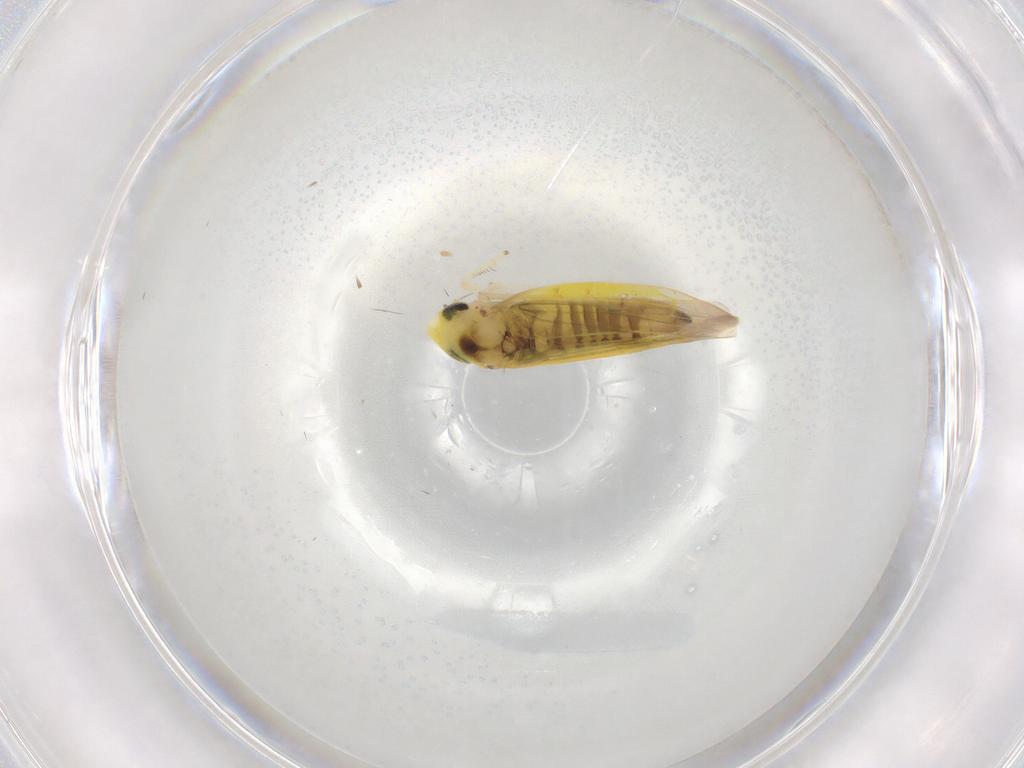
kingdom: Animalia
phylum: Arthropoda
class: Insecta
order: Hemiptera
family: Cicadellidae
